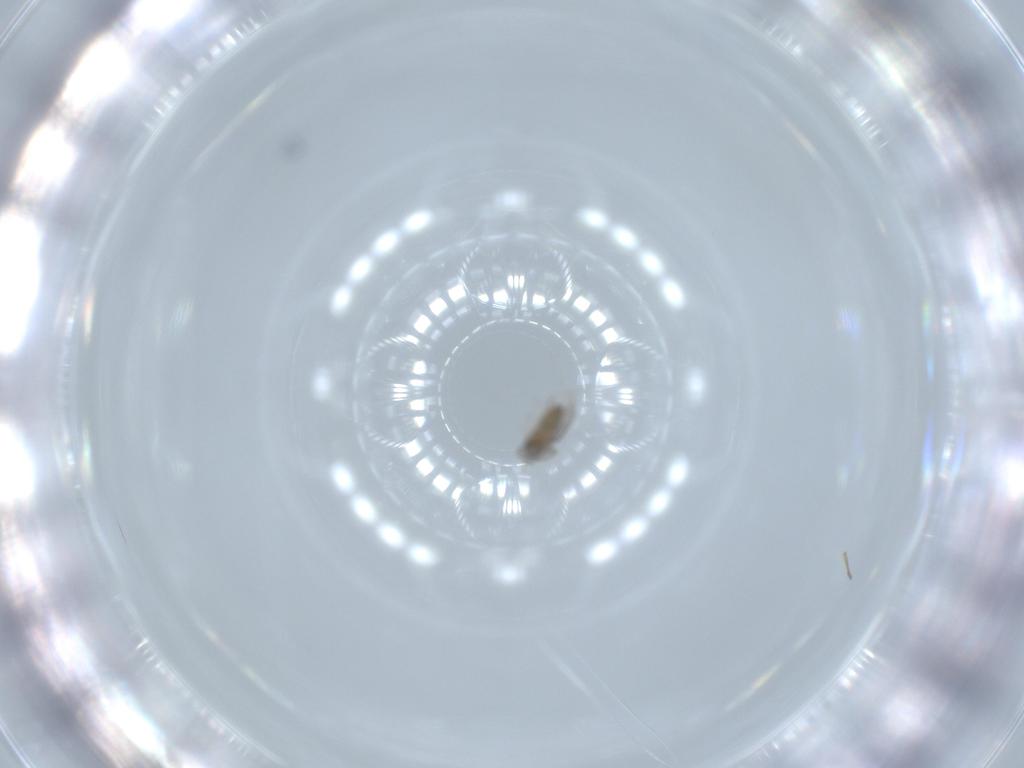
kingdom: Animalia
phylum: Arthropoda
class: Insecta
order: Diptera
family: Cecidomyiidae
